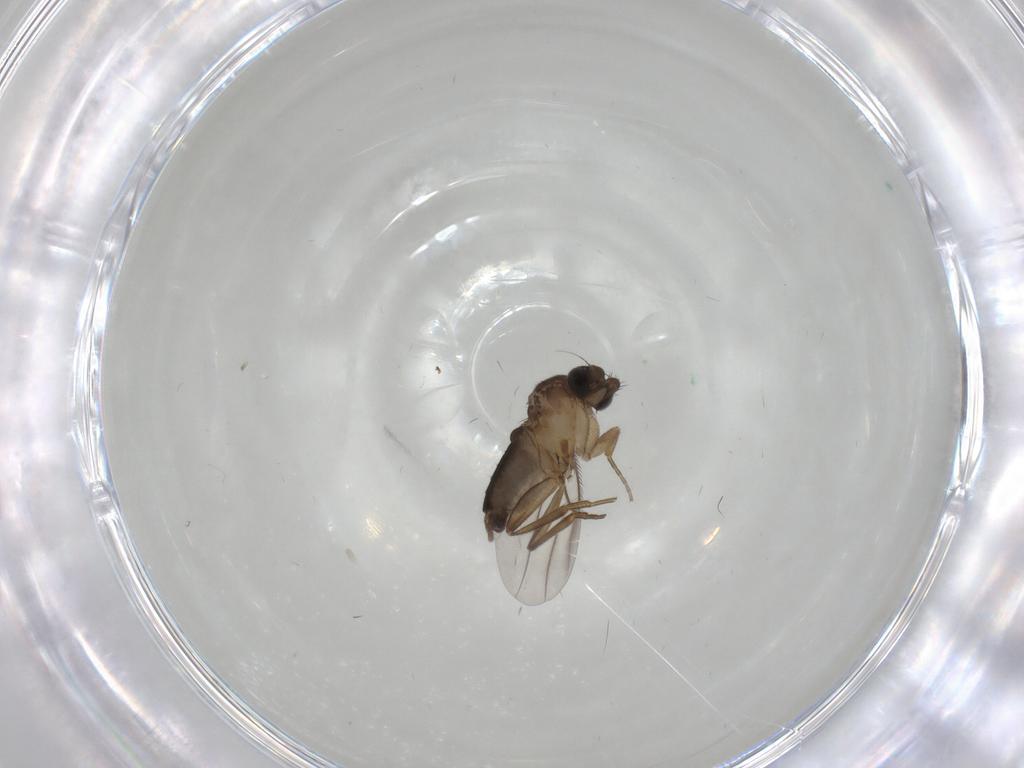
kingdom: Animalia
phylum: Arthropoda
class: Insecta
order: Diptera
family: Phoridae
